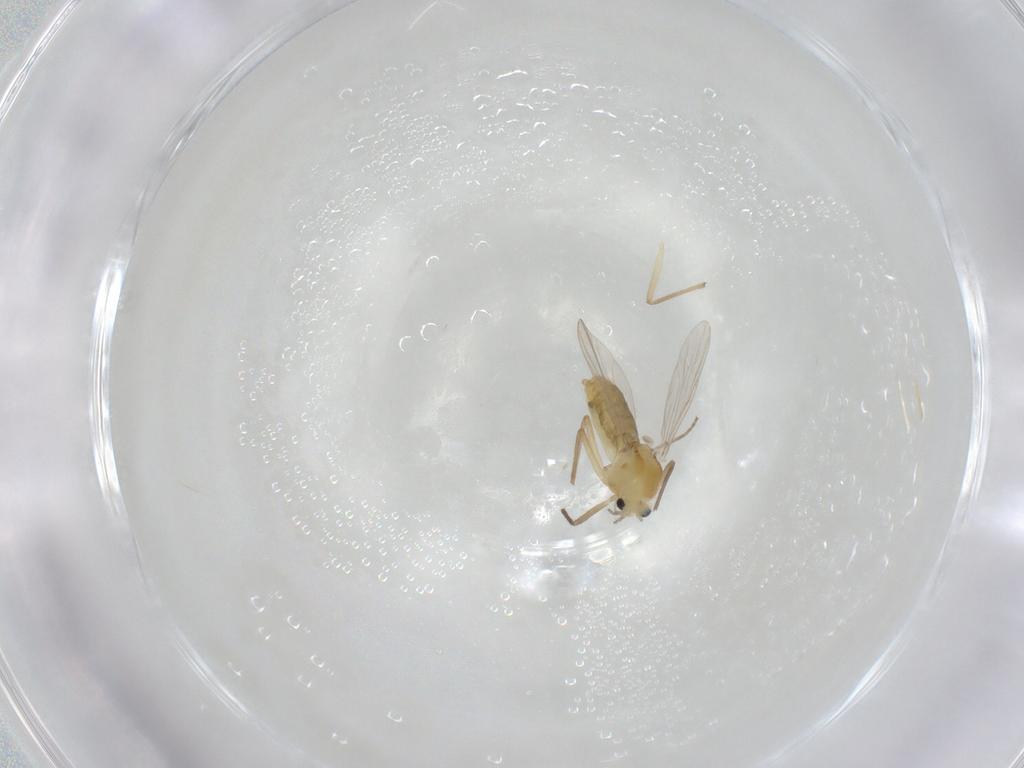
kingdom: Animalia
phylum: Arthropoda
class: Insecta
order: Diptera
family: Chironomidae
